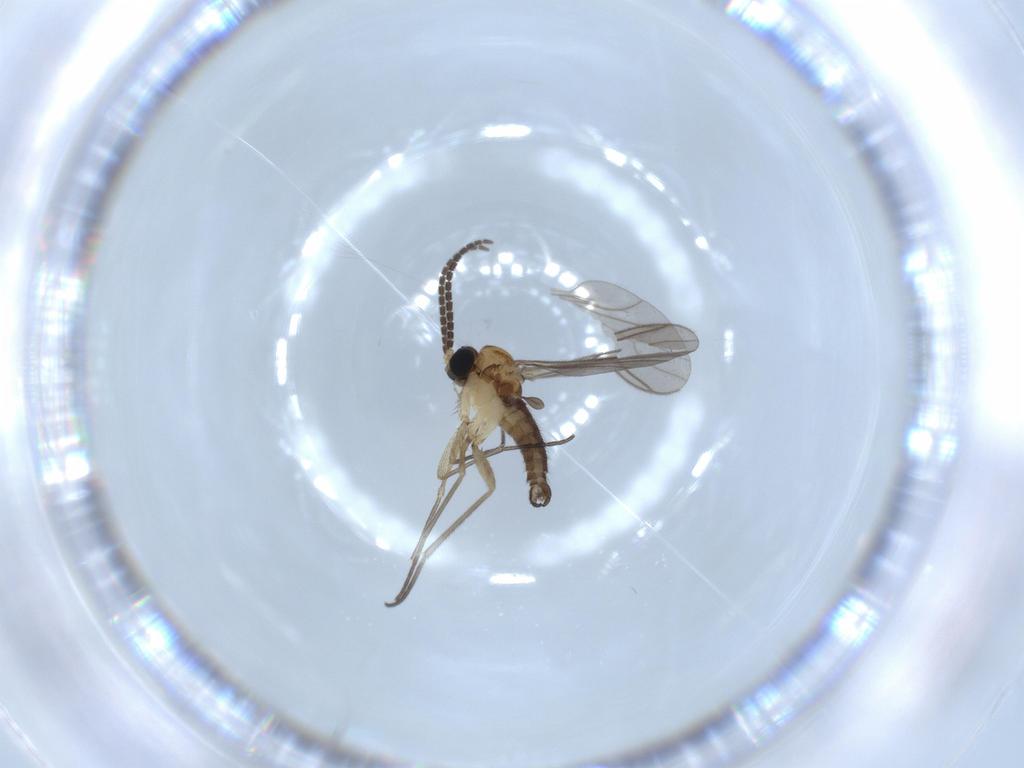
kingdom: Animalia
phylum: Arthropoda
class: Insecta
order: Diptera
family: Sciaridae
